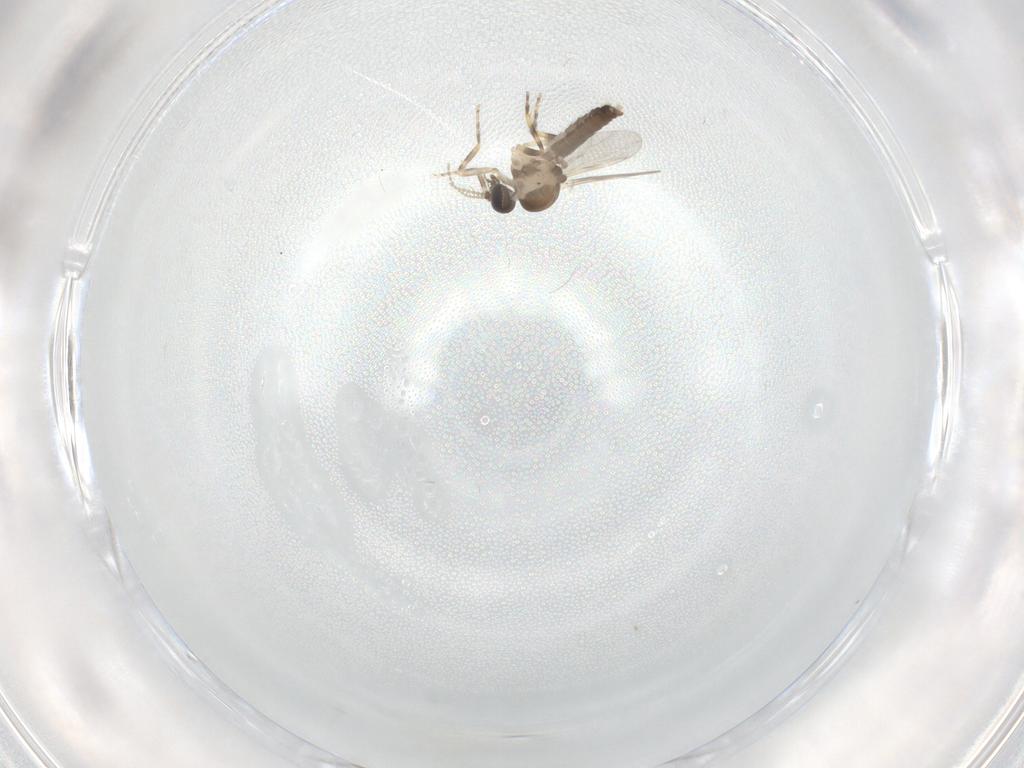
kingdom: Animalia
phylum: Arthropoda
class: Insecta
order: Diptera
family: Ceratopogonidae
